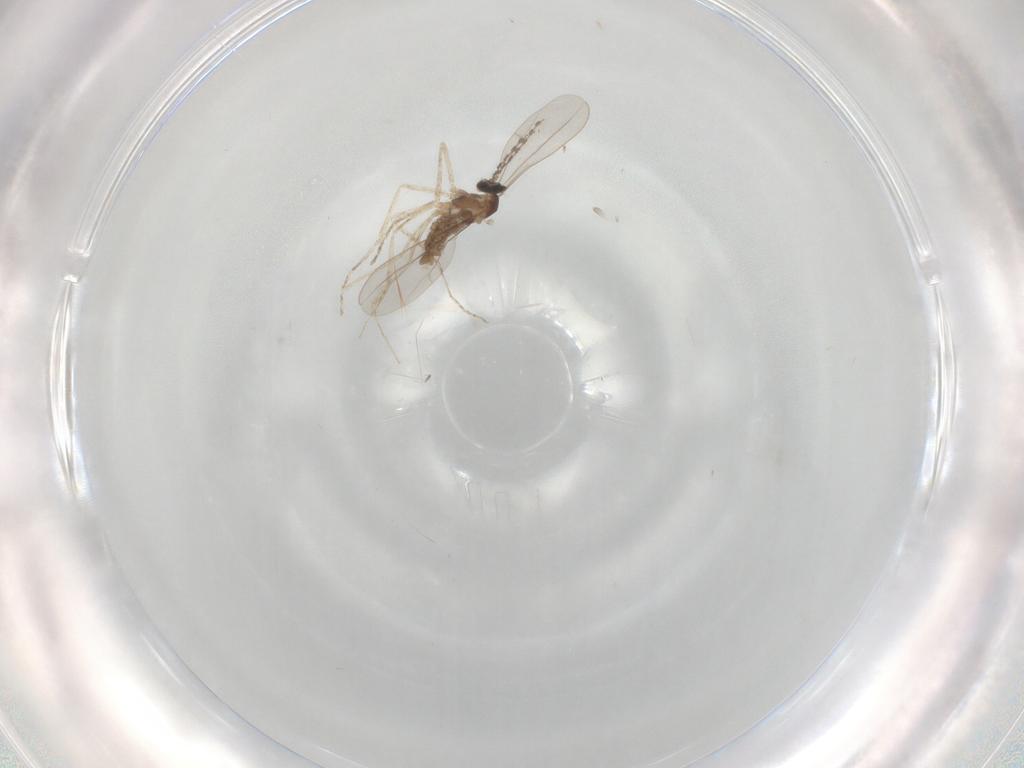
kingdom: Animalia
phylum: Arthropoda
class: Insecta
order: Diptera
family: Cecidomyiidae
